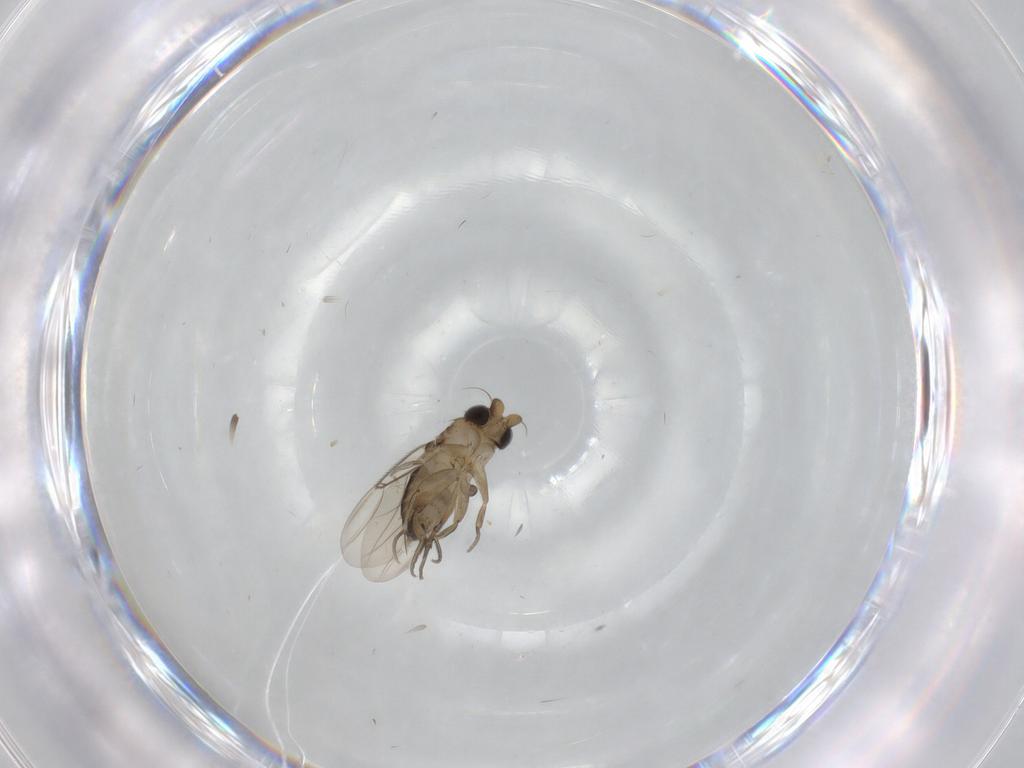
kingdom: Animalia
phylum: Arthropoda
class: Insecta
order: Diptera
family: Phoridae
